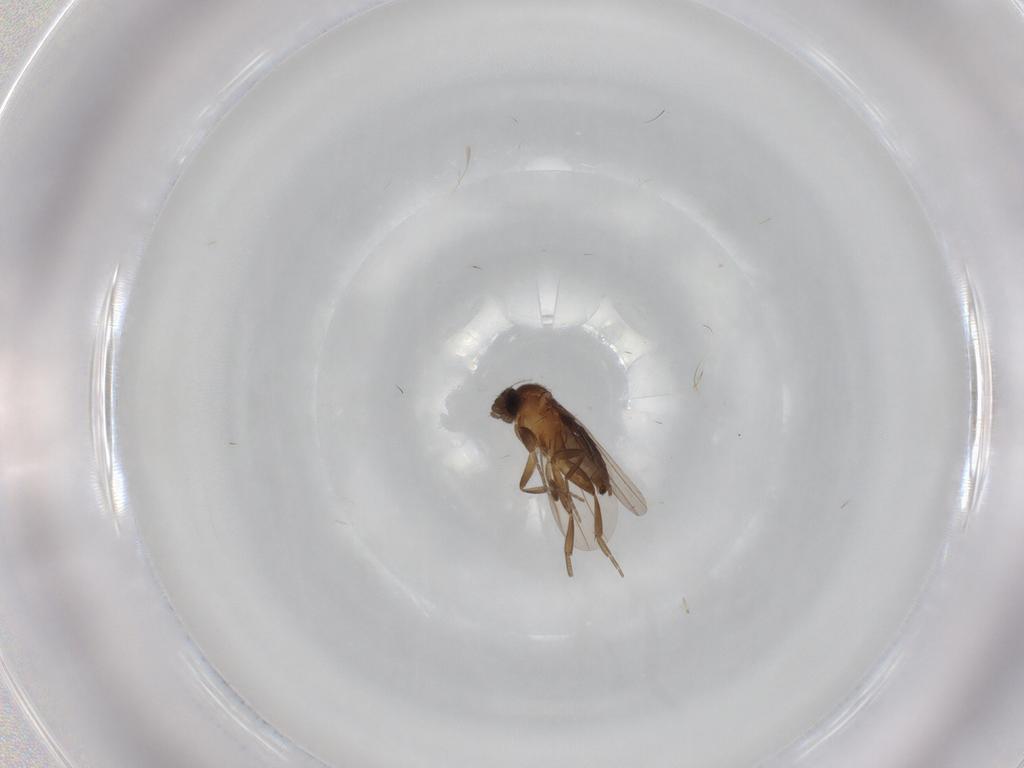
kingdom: Animalia
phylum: Arthropoda
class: Insecta
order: Diptera
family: Phoridae
